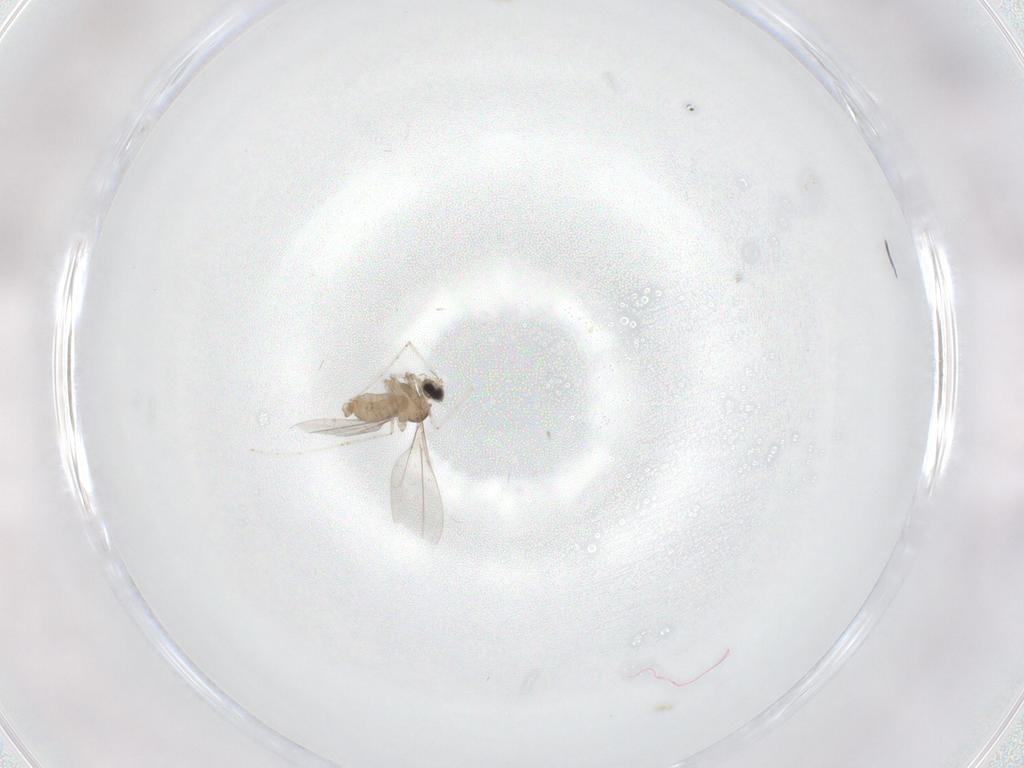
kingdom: Animalia
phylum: Arthropoda
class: Insecta
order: Diptera
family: Cecidomyiidae
